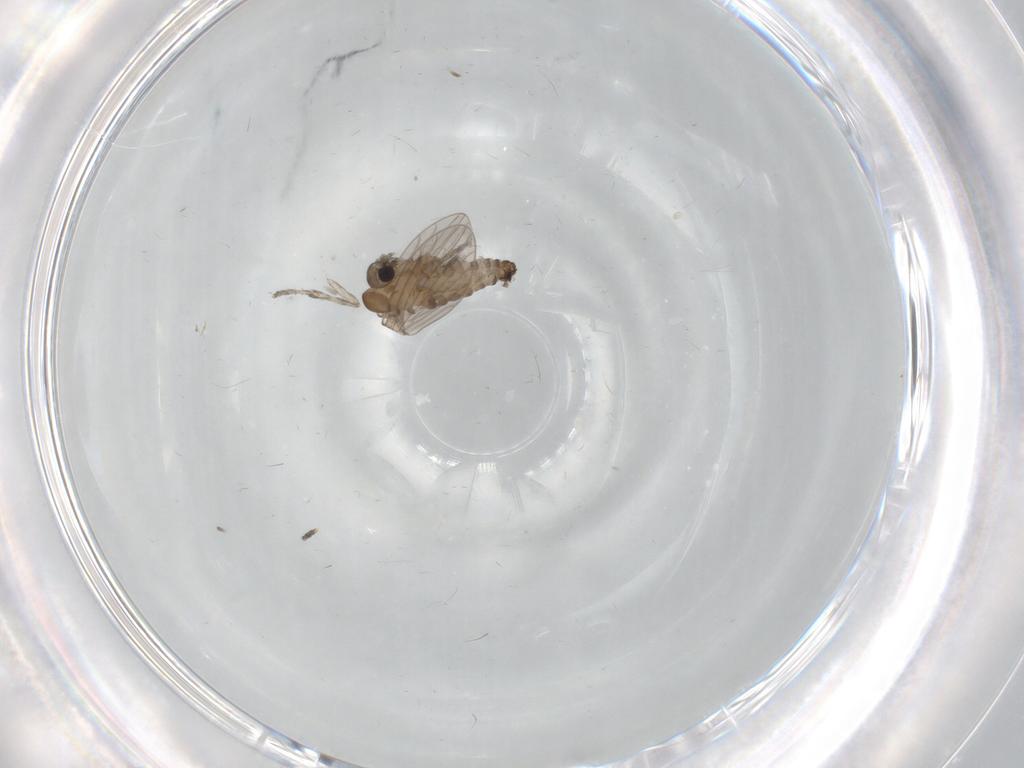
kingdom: Animalia
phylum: Arthropoda
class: Insecta
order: Diptera
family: Cecidomyiidae
